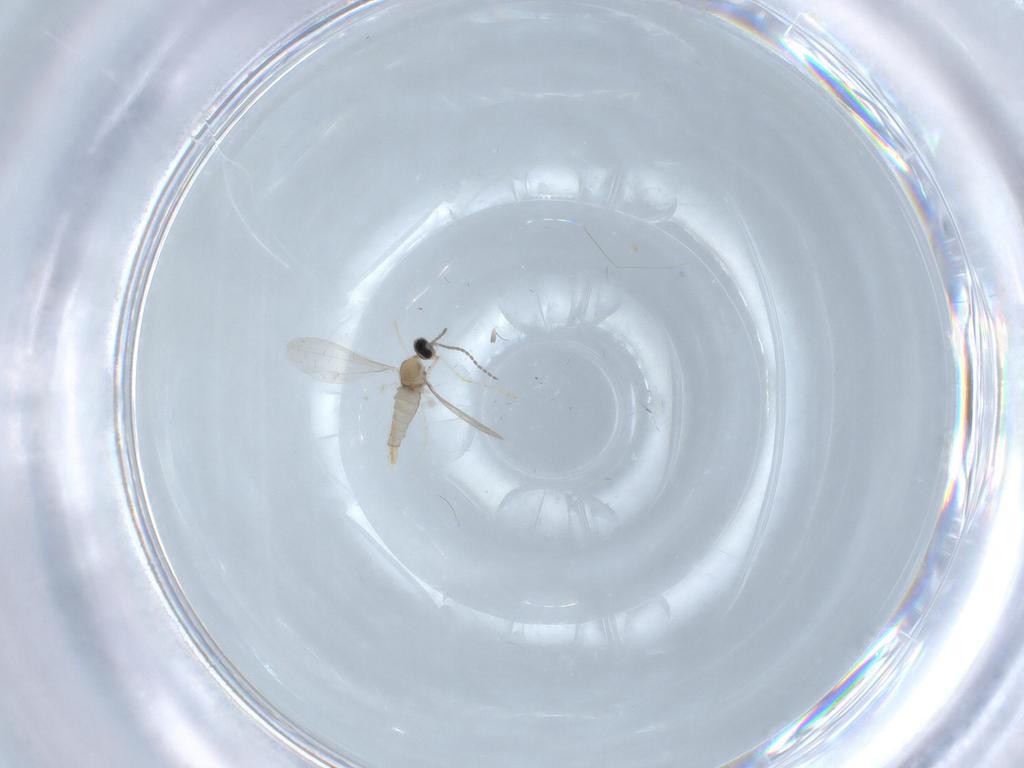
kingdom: Animalia
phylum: Arthropoda
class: Insecta
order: Diptera
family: Cecidomyiidae
